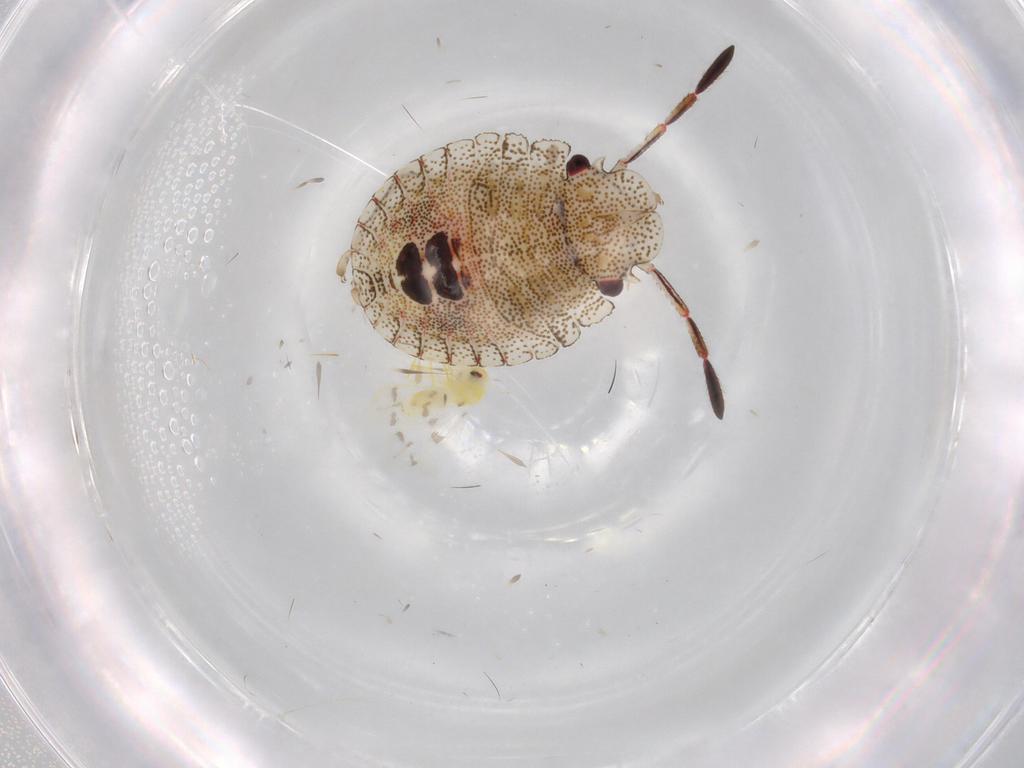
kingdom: Animalia
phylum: Arthropoda
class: Insecta
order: Hemiptera
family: Pentatomidae
